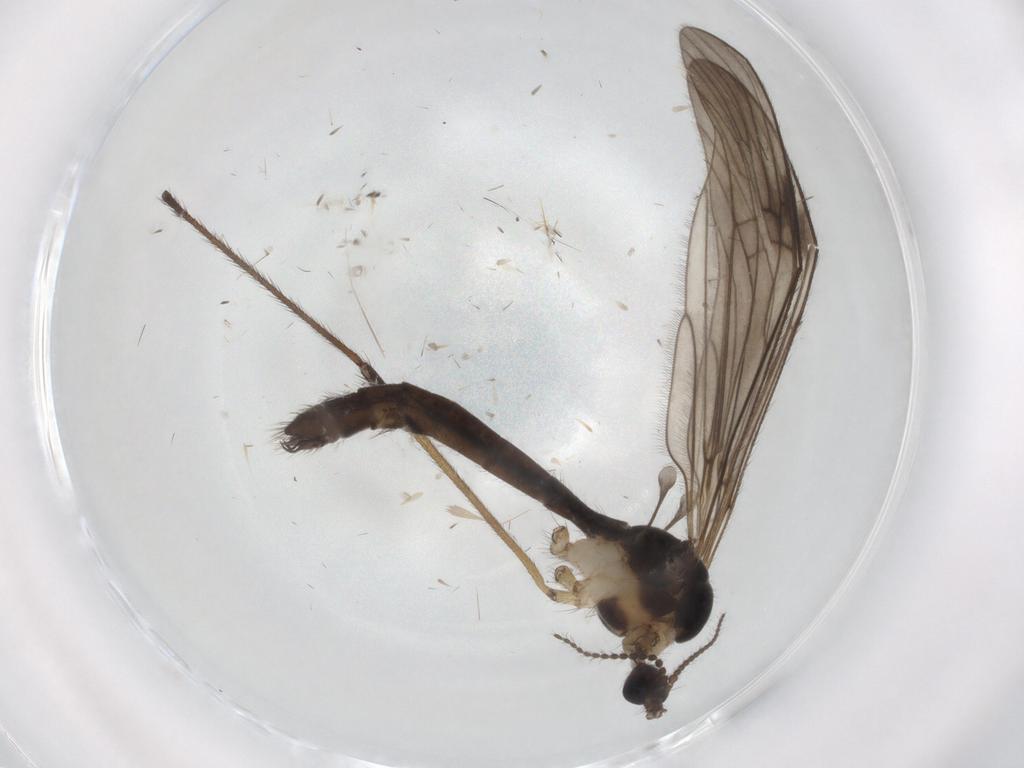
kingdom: Animalia
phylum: Arthropoda
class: Insecta
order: Diptera
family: Limoniidae
